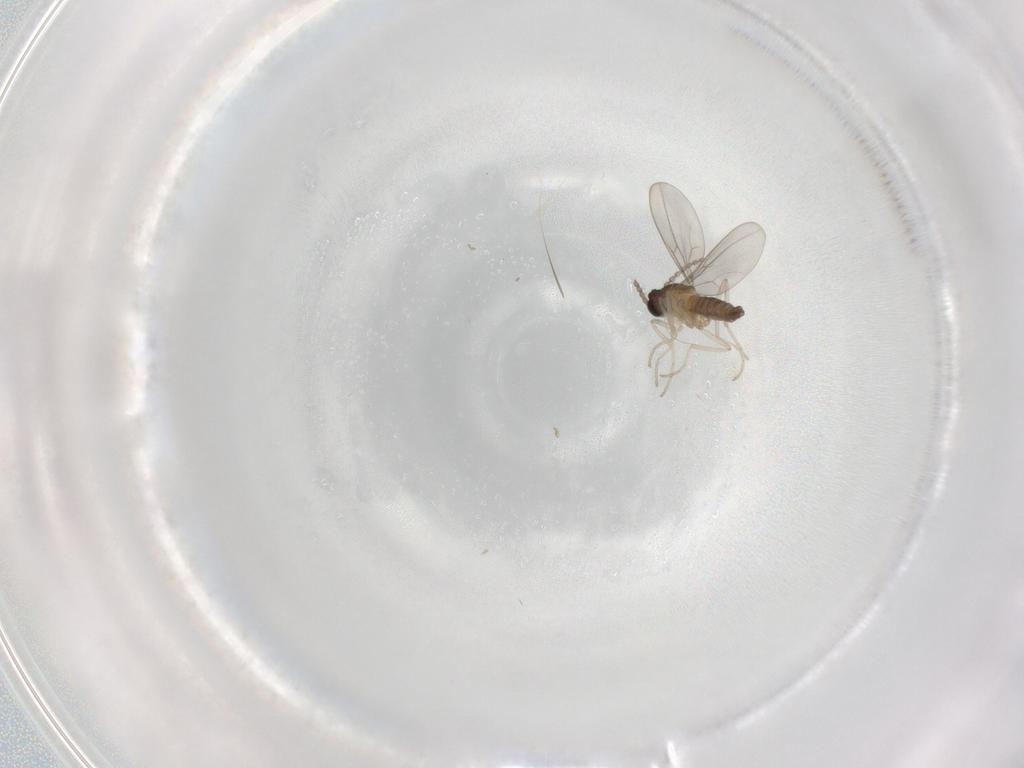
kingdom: Animalia
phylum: Arthropoda
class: Insecta
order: Diptera
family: Cecidomyiidae
